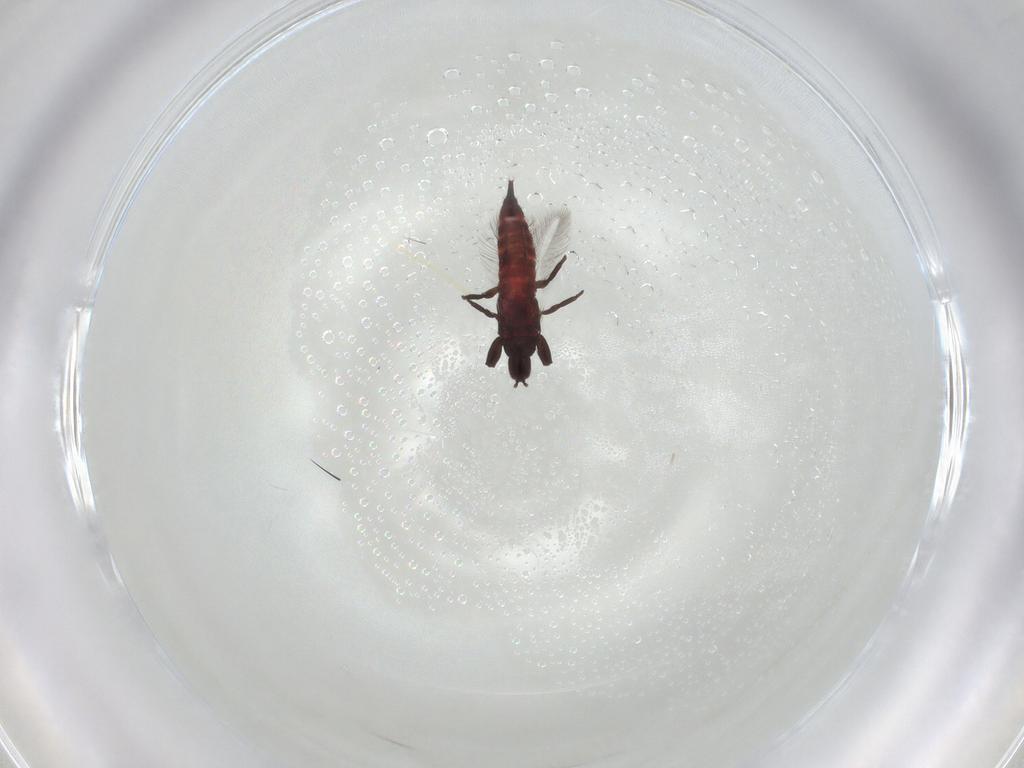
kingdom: Animalia
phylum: Arthropoda
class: Insecta
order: Thysanoptera
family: Phlaeothripidae
